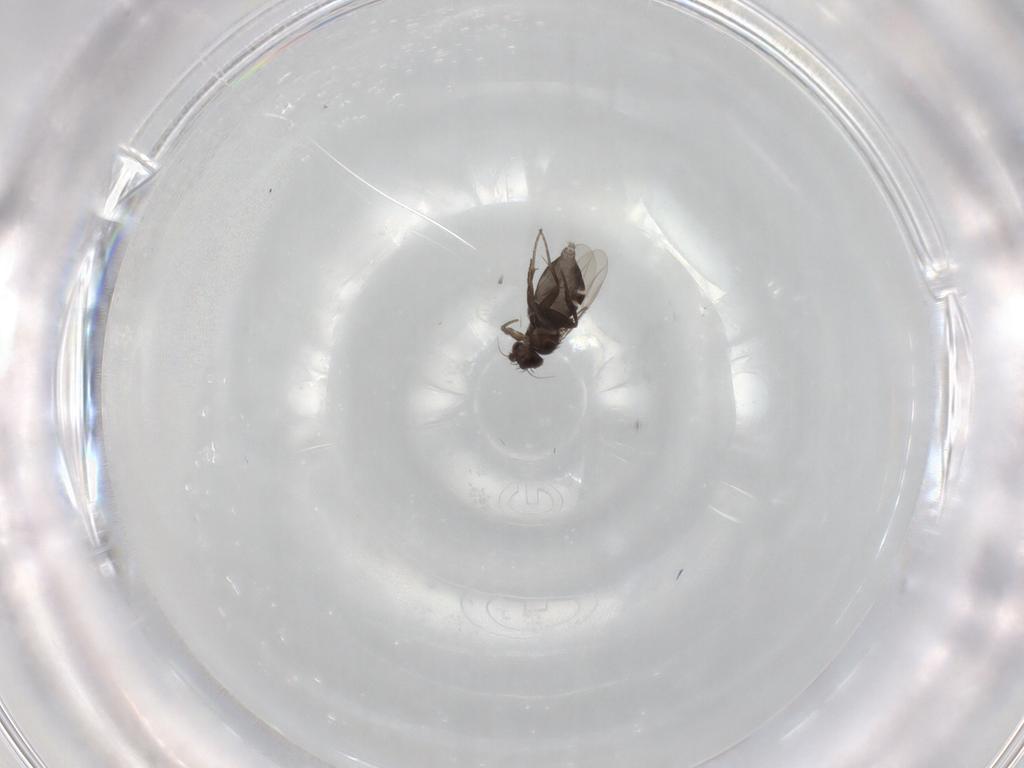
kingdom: Animalia
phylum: Arthropoda
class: Insecta
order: Diptera
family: Phoridae
